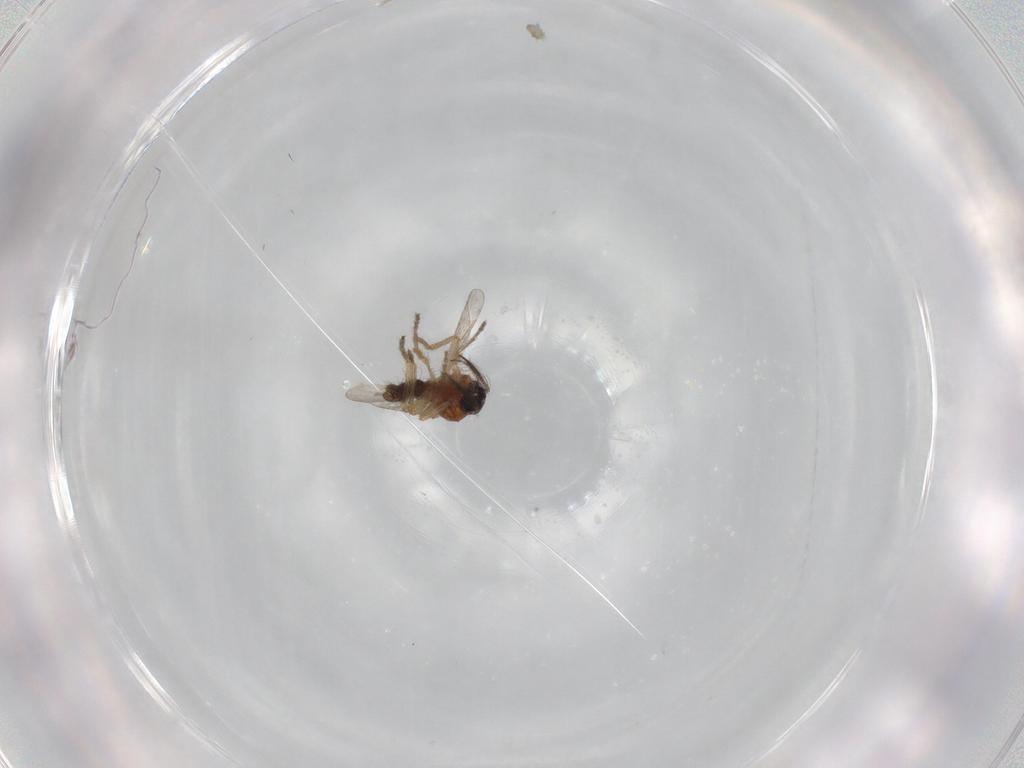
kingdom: Animalia
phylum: Arthropoda
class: Insecta
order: Diptera
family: Ceratopogonidae
